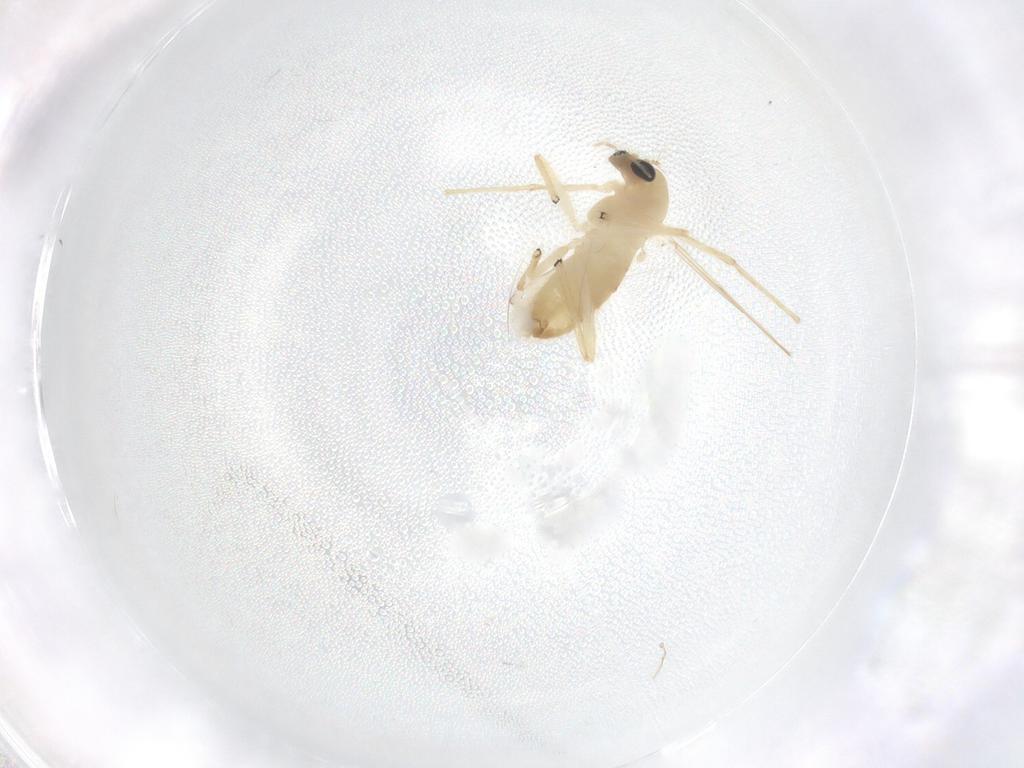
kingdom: Animalia
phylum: Arthropoda
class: Insecta
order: Diptera
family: Chironomidae
